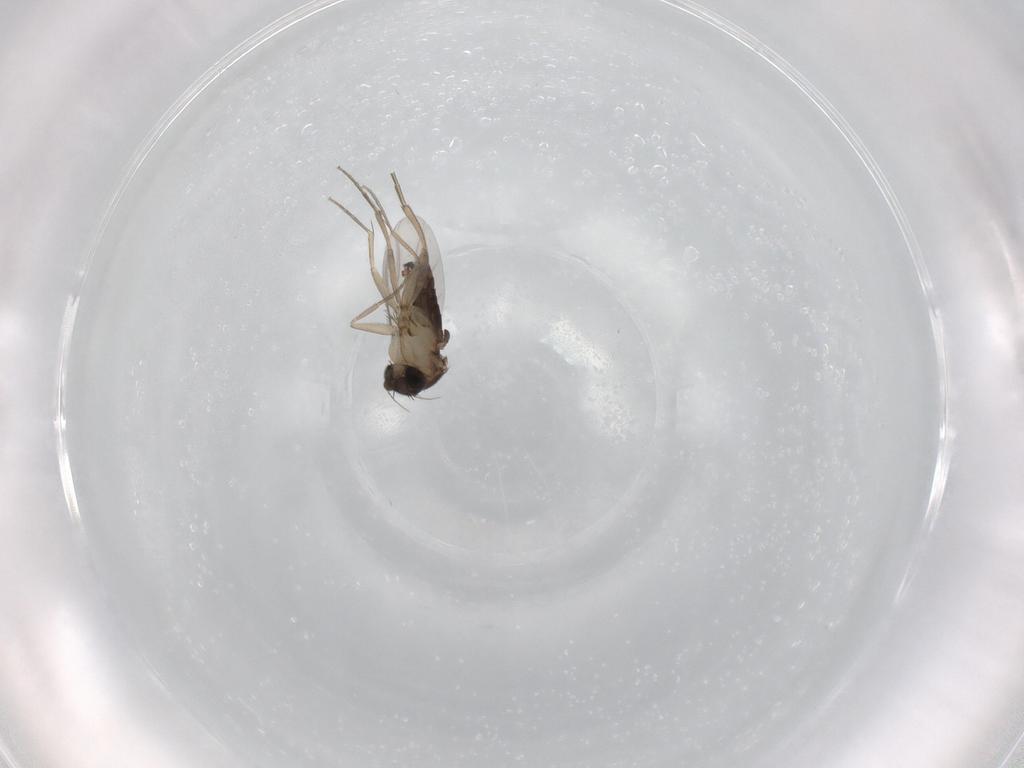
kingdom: Animalia
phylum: Arthropoda
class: Insecta
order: Diptera
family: Phoridae
